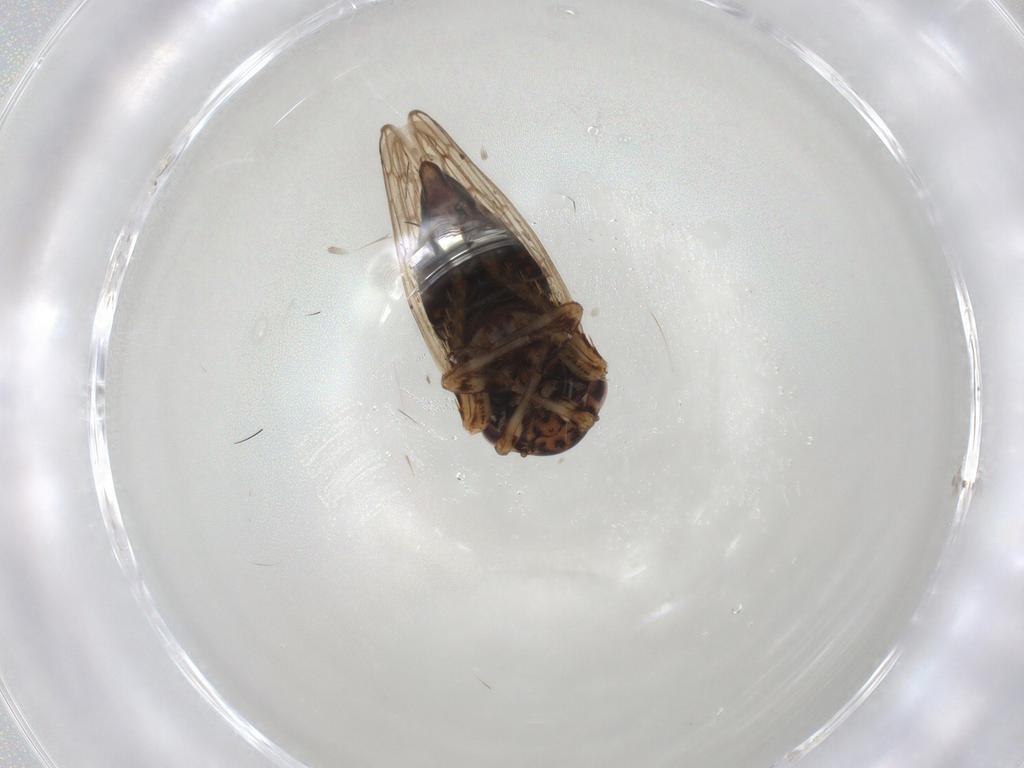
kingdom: Animalia
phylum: Arthropoda
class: Insecta
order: Hemiptera
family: Cicadellidae
